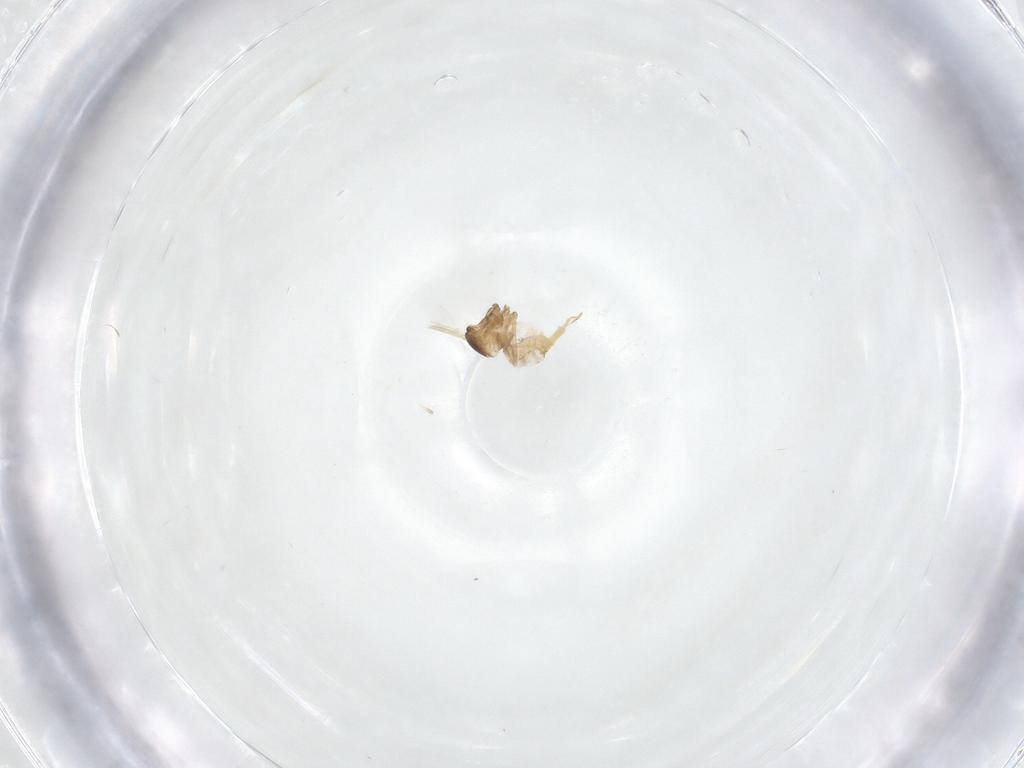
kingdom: Animalia
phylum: Arthropoda
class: Insecta
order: Diptera
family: Cecidomyiidae
